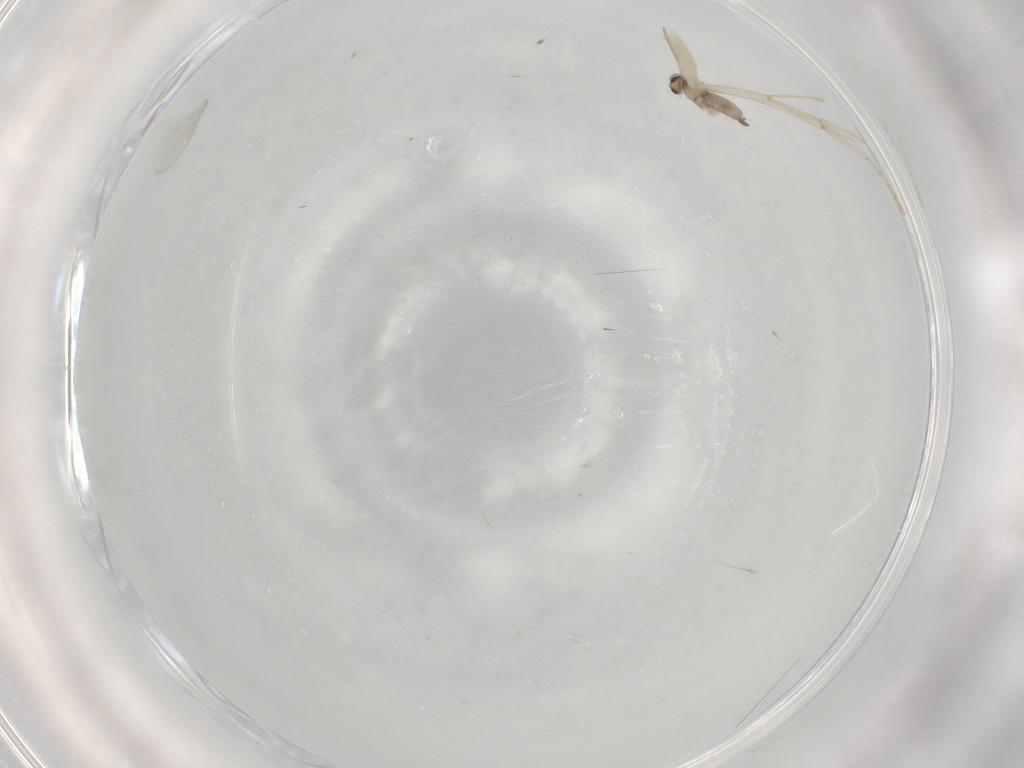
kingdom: Animalia
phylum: Arthropoda
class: Insecta
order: Diptera
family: Cecidomyiidae
